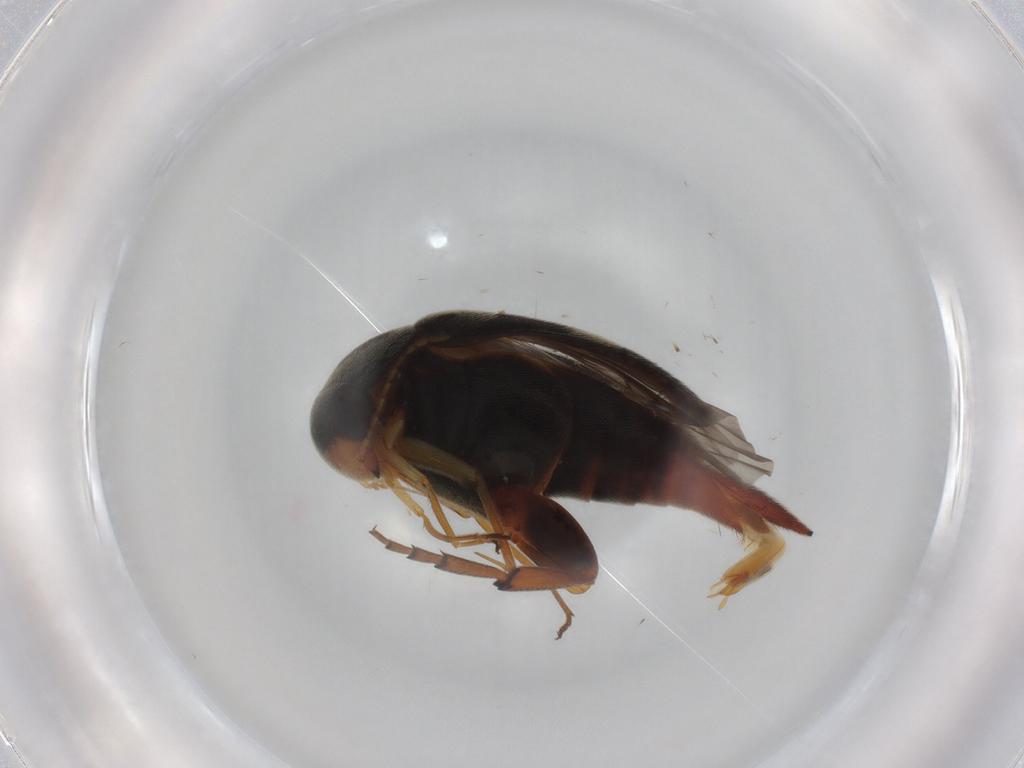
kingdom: Animalia
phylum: Arthropoda
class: Insecta
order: Coleoptera
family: Mordellidae
